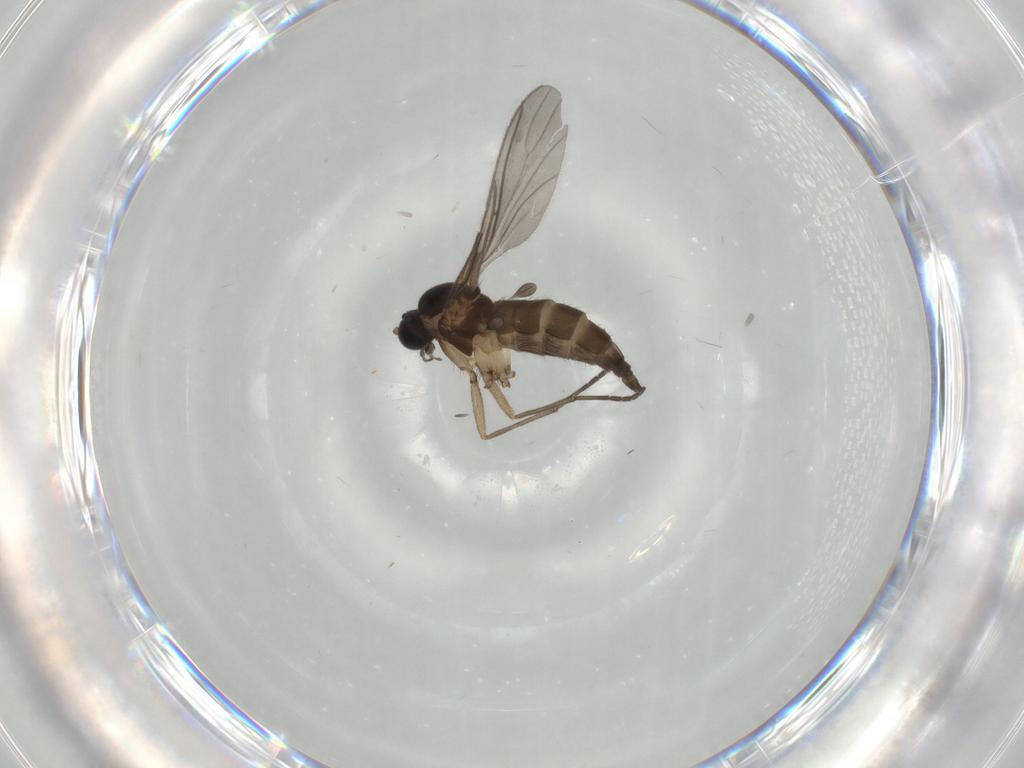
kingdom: Animalia
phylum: Arthropoda
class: Insecta
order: Diptera
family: Sciaridae
